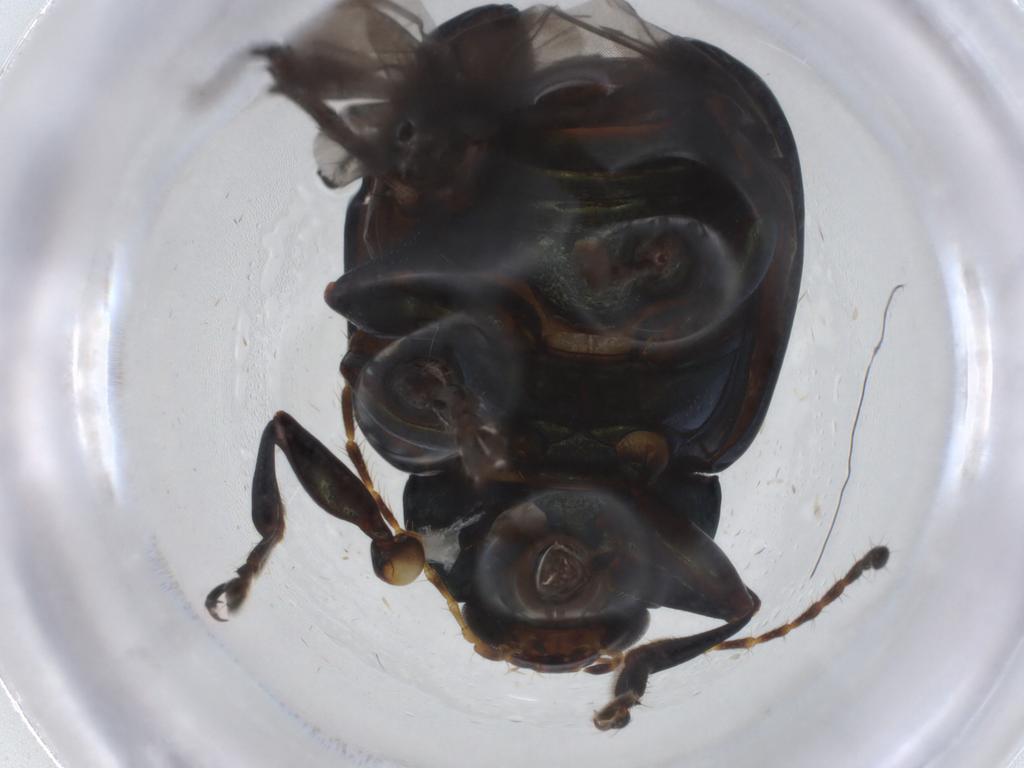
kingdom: Animalia
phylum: Arthropoda
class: Insecta
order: Coleoptera
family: Chrysomelidae
